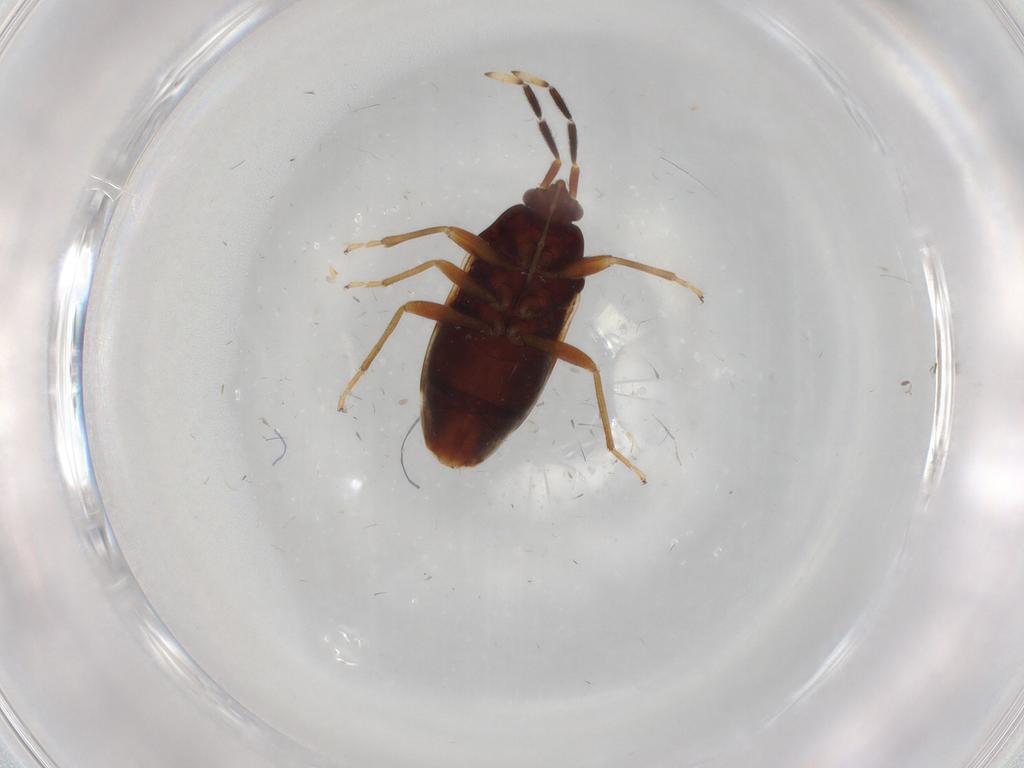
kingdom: Animalia
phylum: Arthropoda
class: Insecta
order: Hemiptera
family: Rhyparochromidae
